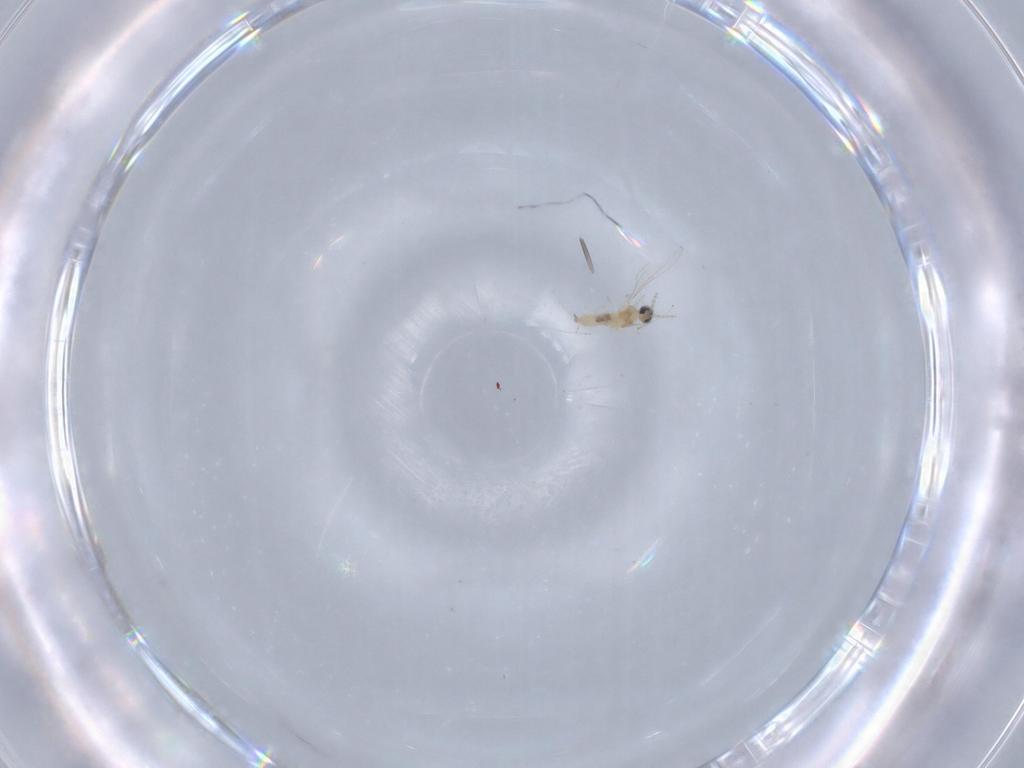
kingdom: Animalia
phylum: Arthropoda
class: Insecta
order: Diptera
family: Cecidomyiidae
